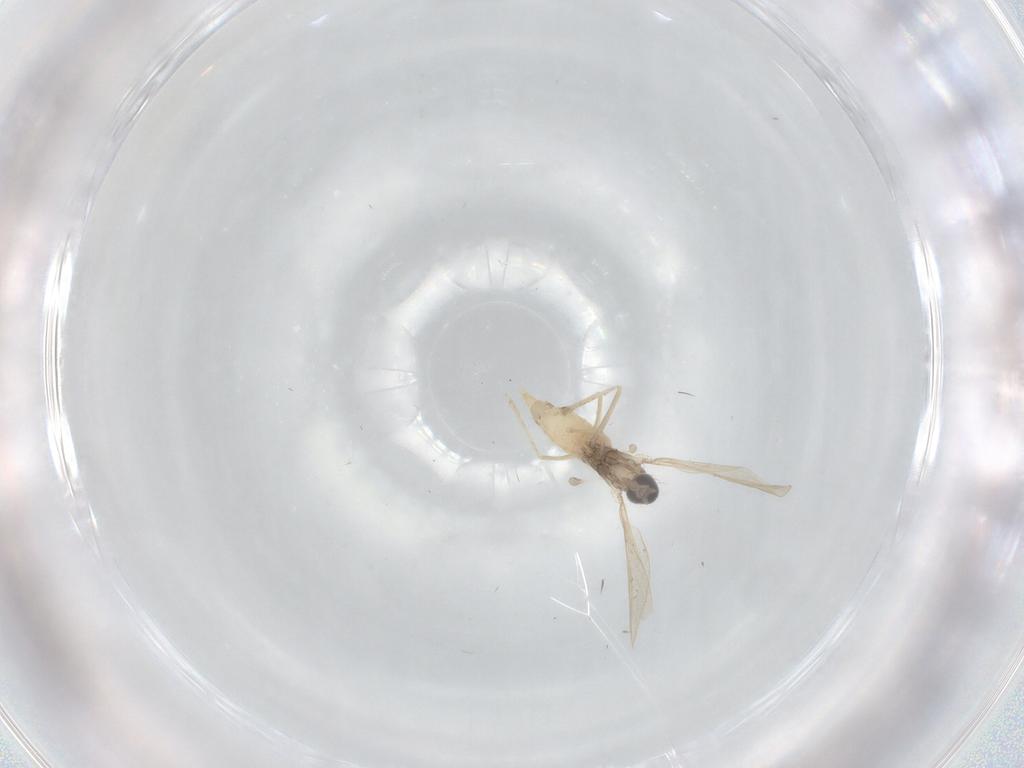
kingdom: Animalia
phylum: Arthropoda
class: Insecta
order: Diptera
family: Cecidomyiidae
